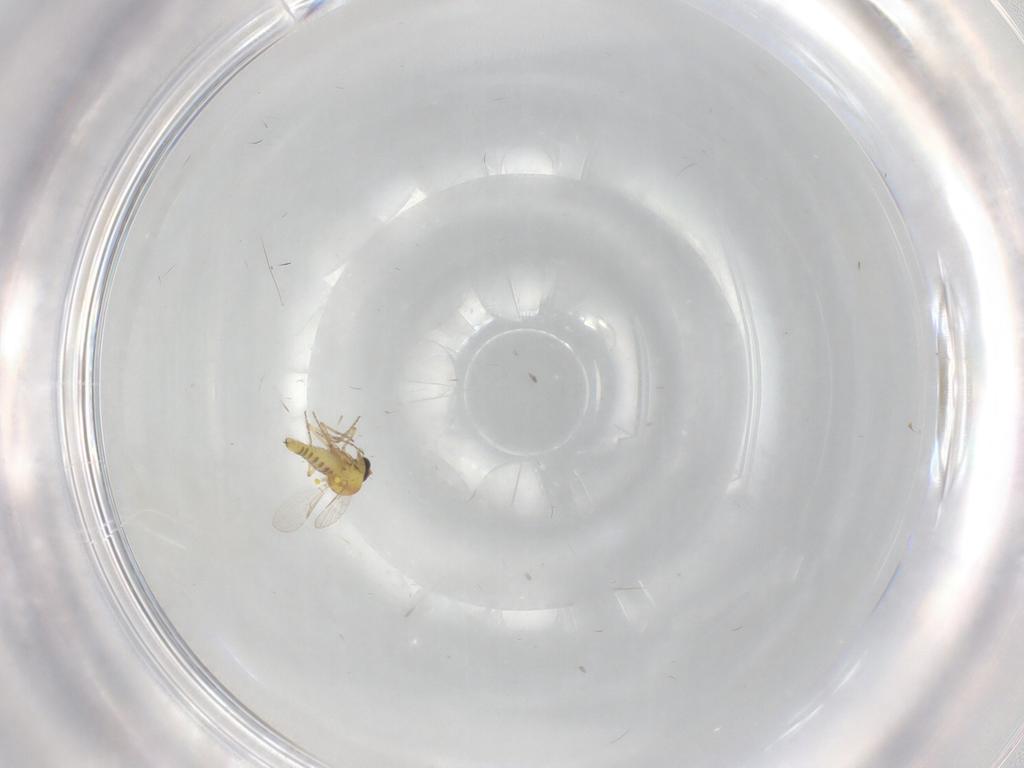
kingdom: Animalia
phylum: Arthropoda
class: Insecta
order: Diptera
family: Ceratopogonidae
